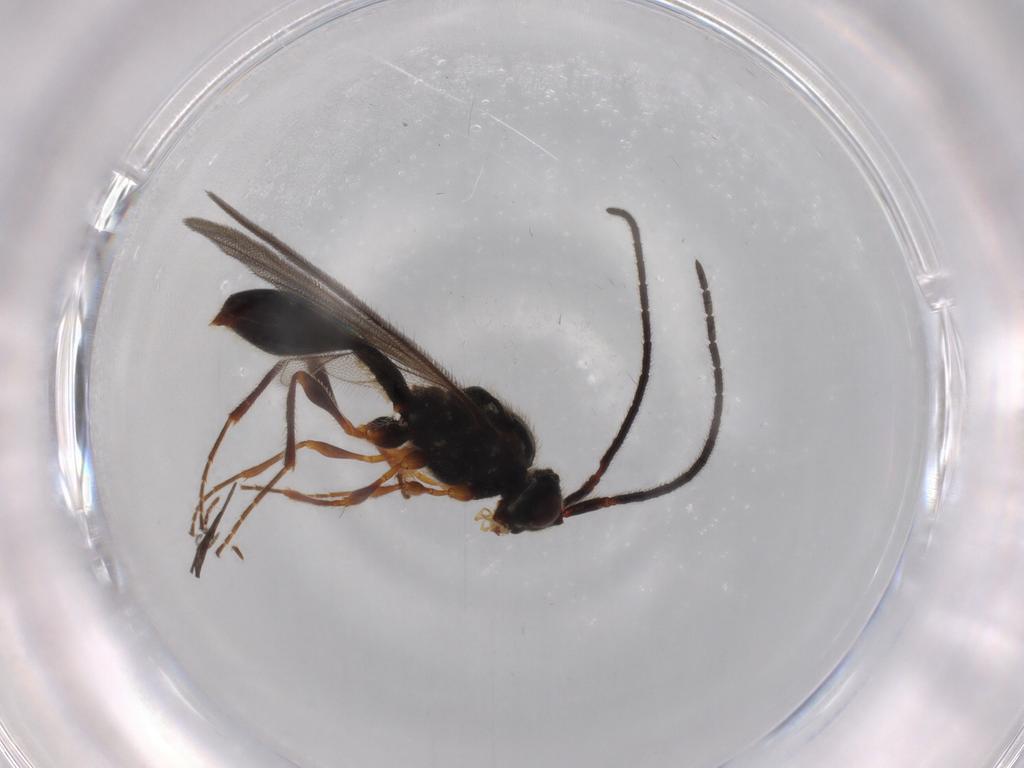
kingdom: Animalia
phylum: Arthropoda
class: Insecta
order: Hymenoptera
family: Diapriidae
